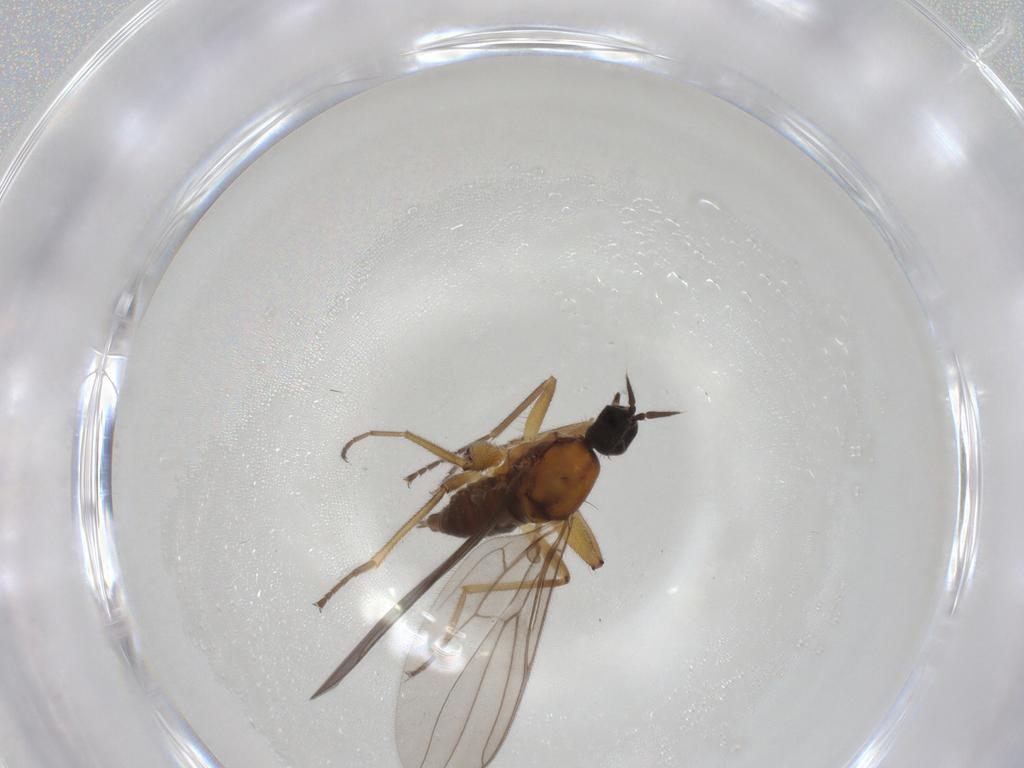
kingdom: Animalia
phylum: Arthropoda
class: Insecta
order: Diptera
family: Hybotidae
